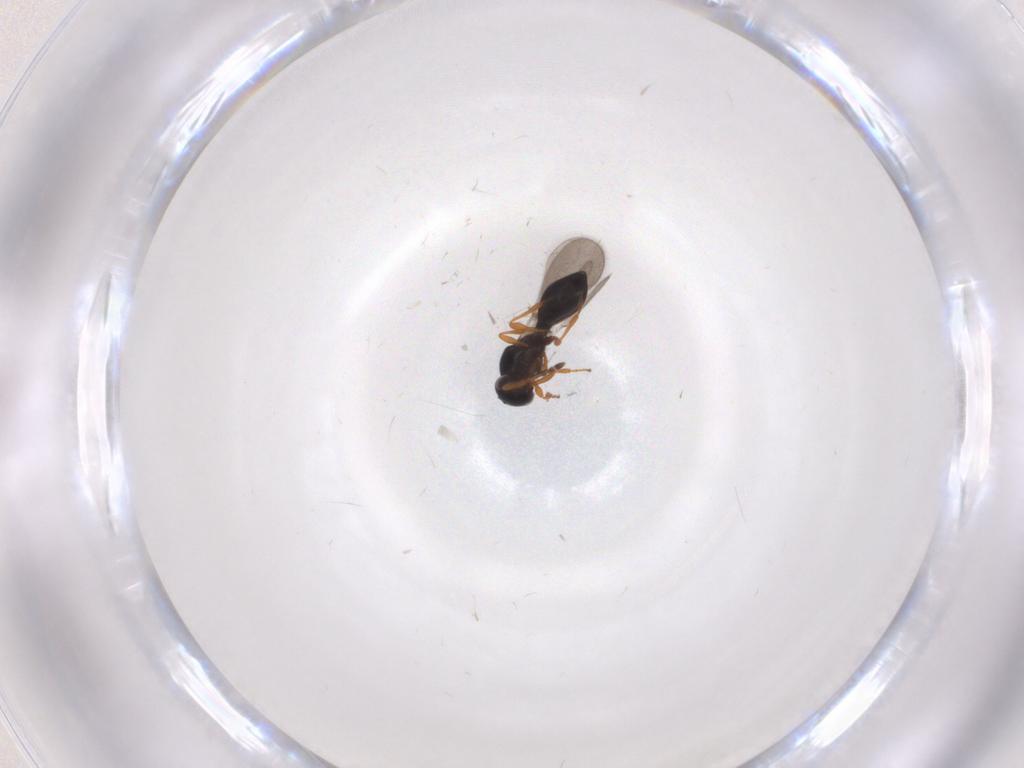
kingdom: Animalia
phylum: Arthropoda
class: Insecta
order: Hymenoptera
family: Platygastridae
